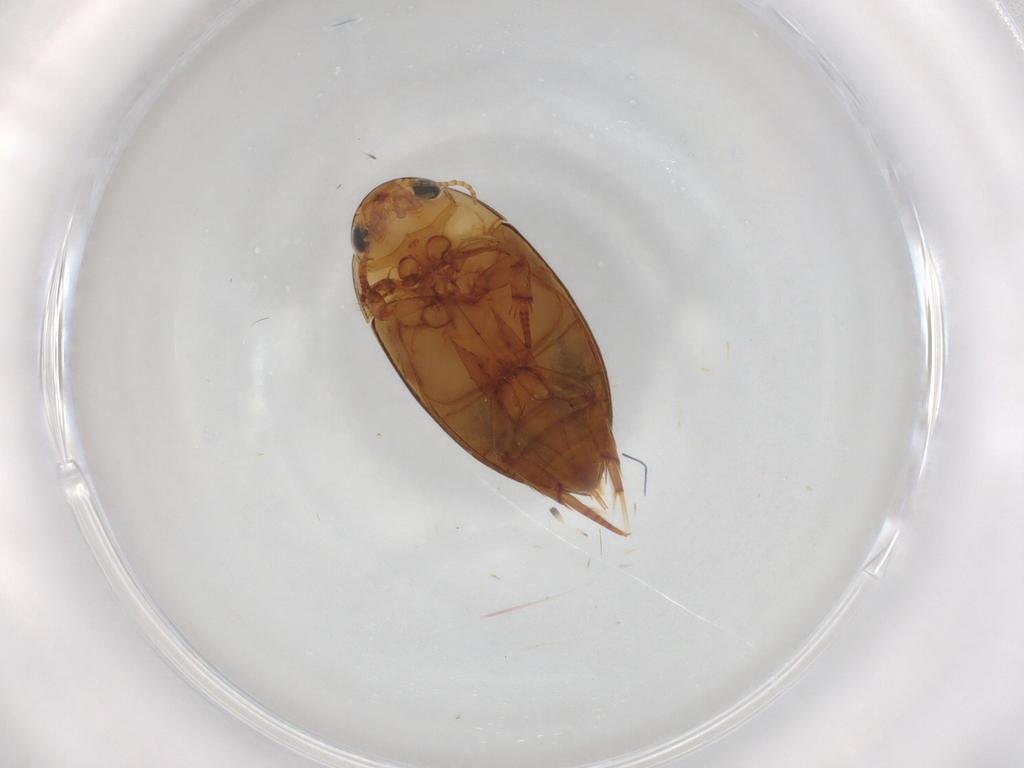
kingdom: Animalia
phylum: Arthropoda
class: Insecta
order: Coleoptera
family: Noteridae
